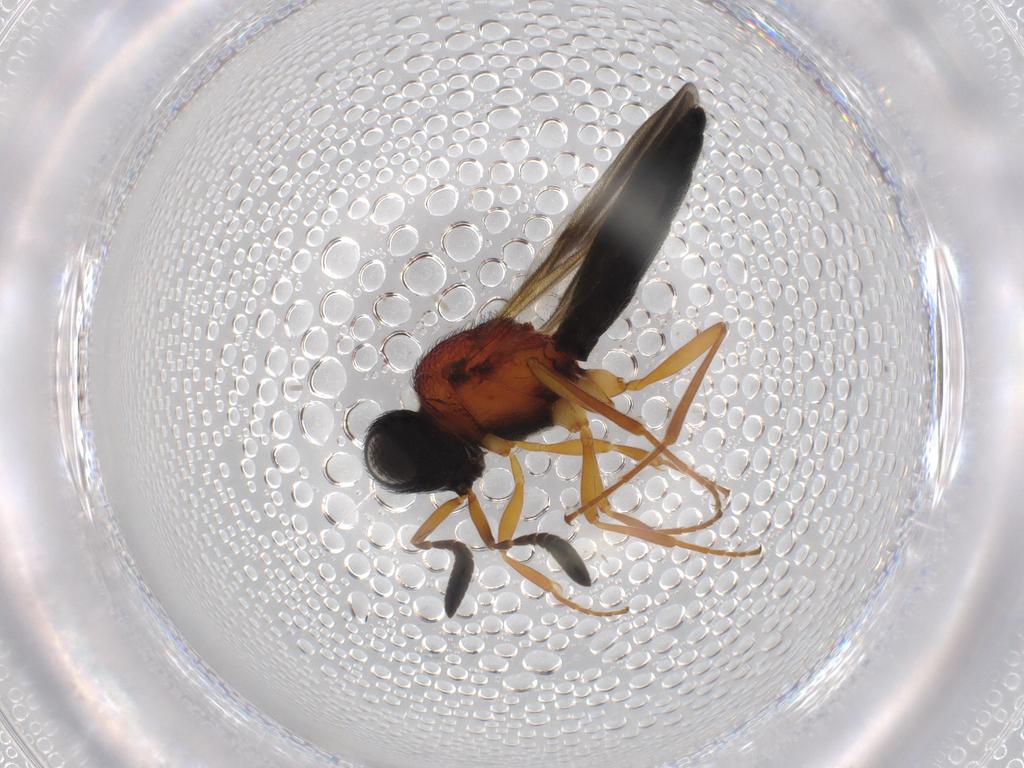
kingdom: Animalia
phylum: Arthropoda
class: Insecta
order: Hymenoptera
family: Scelionidae
